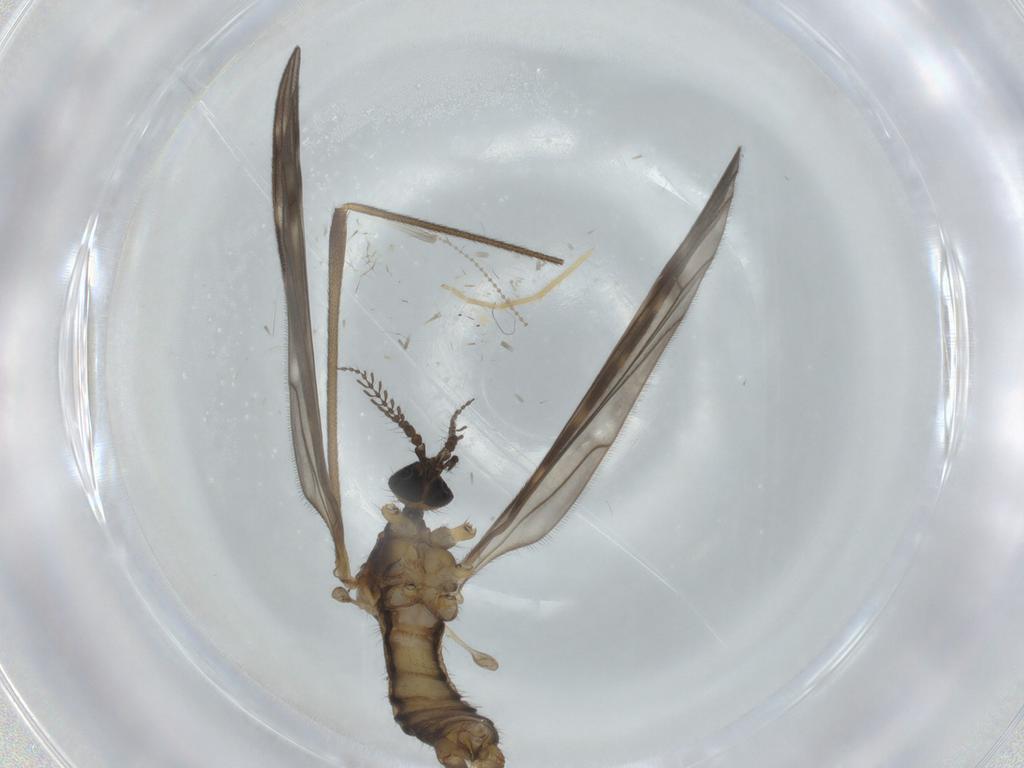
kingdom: Animalia
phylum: Arthropoda
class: Insecta
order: Diptera
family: Limoniidae
